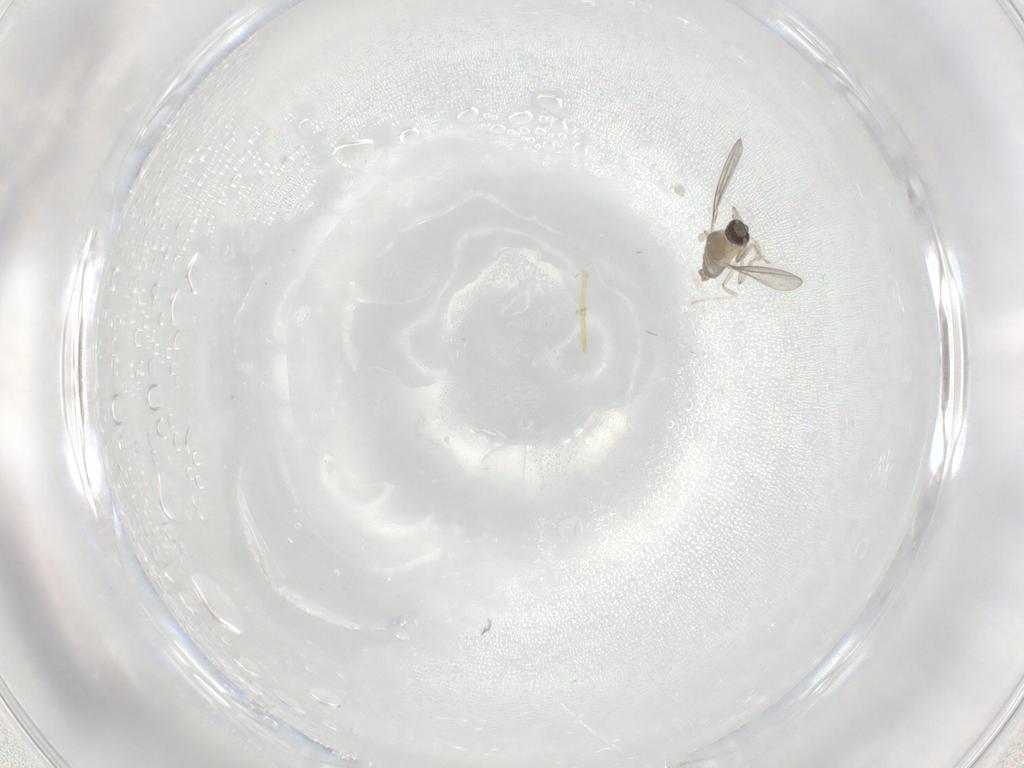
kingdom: Animalia
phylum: Arthropoda
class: Insecta
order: Diptera
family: Cecidomyiidae
